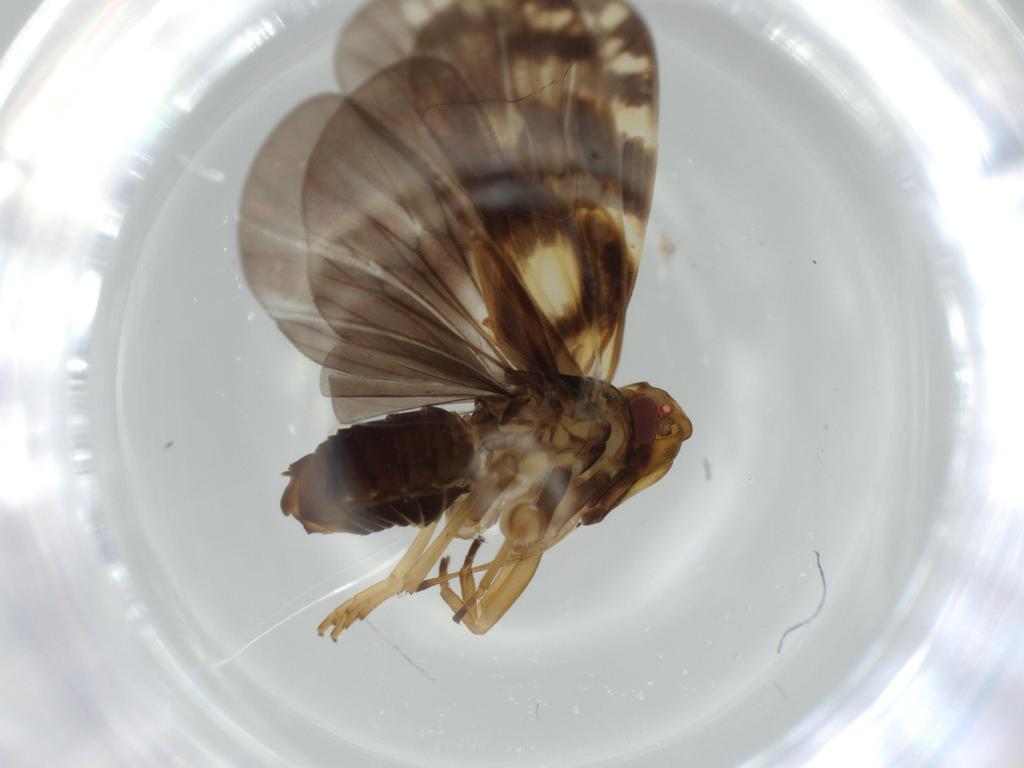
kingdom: Animalia
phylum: Arthropoda
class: Insecta
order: Hemiptera
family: Cixiidae
